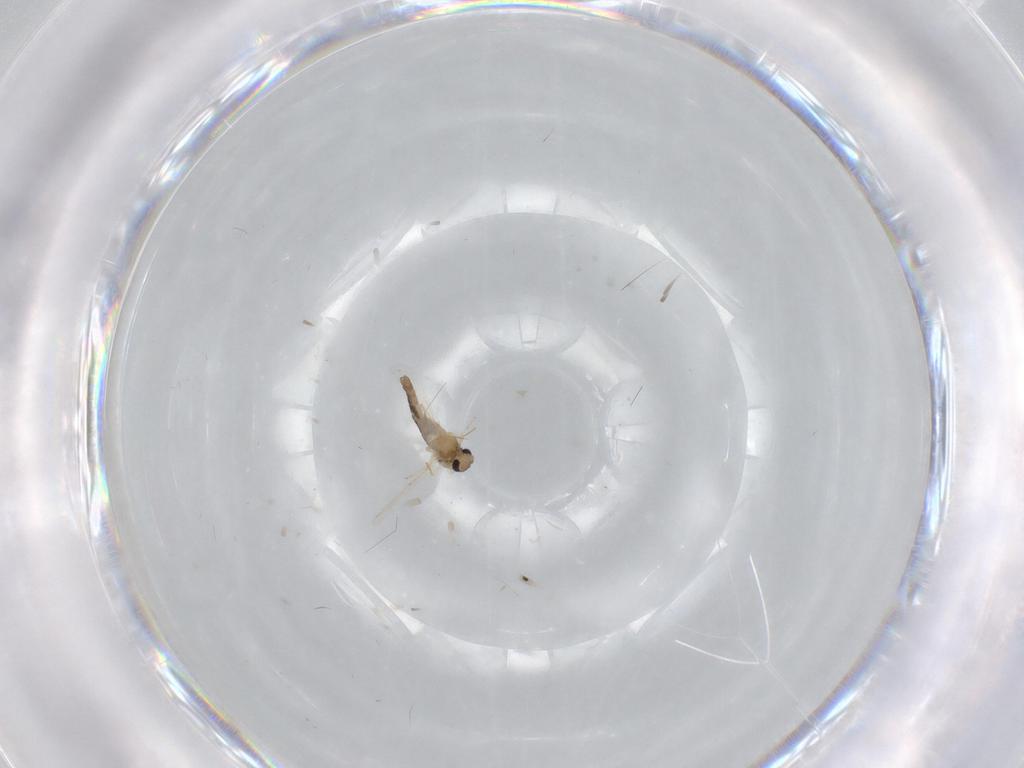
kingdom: Animalia
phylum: Arthropoda
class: Insecta
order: Diptera
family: Chironomidae
